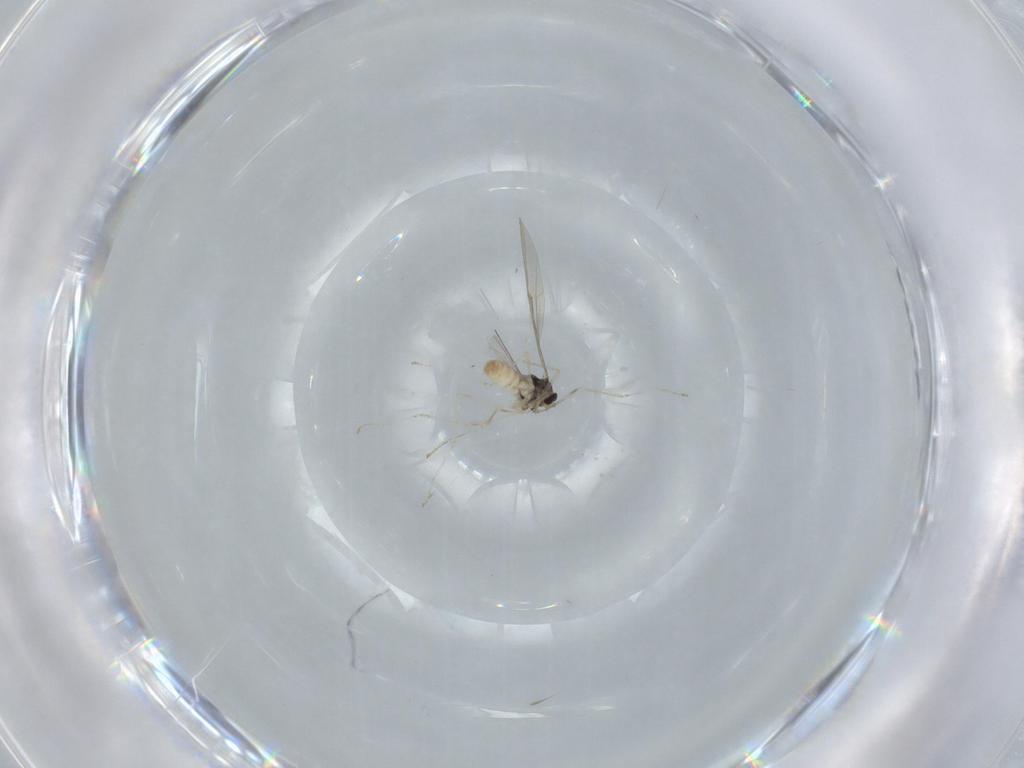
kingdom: Animalia
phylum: Arthropoda
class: Insecta
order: Diptera
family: Cecidomyiidae
